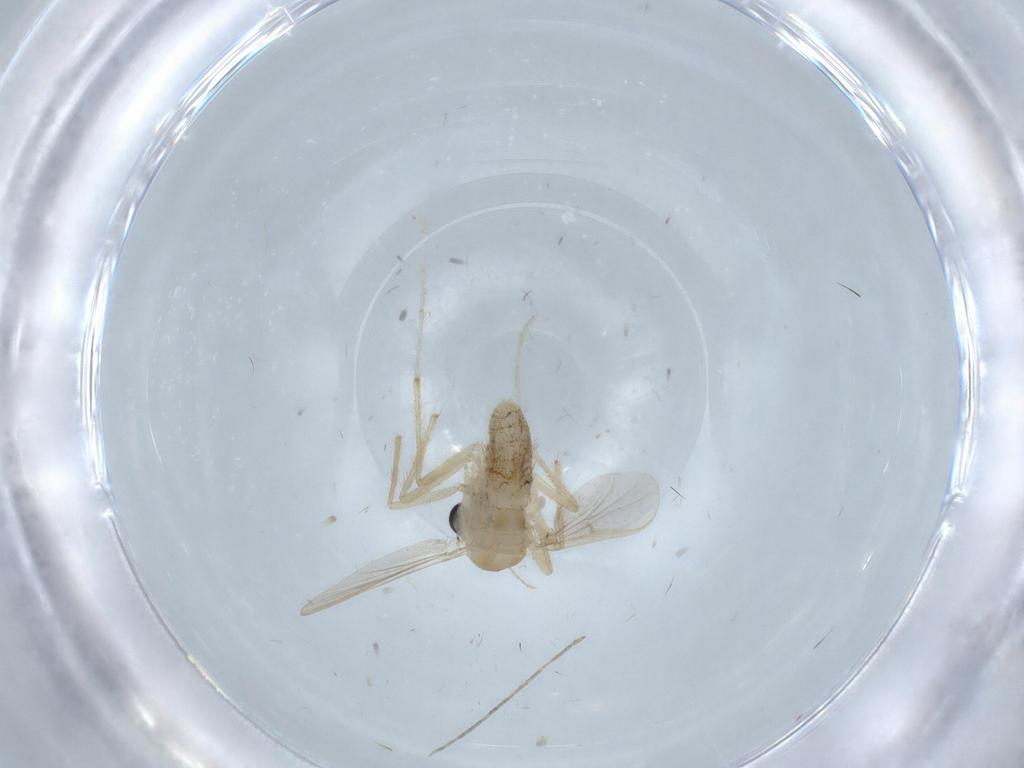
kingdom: Animalia
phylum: Arthropoda
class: Insecta
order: Diptera
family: Chironomidae
